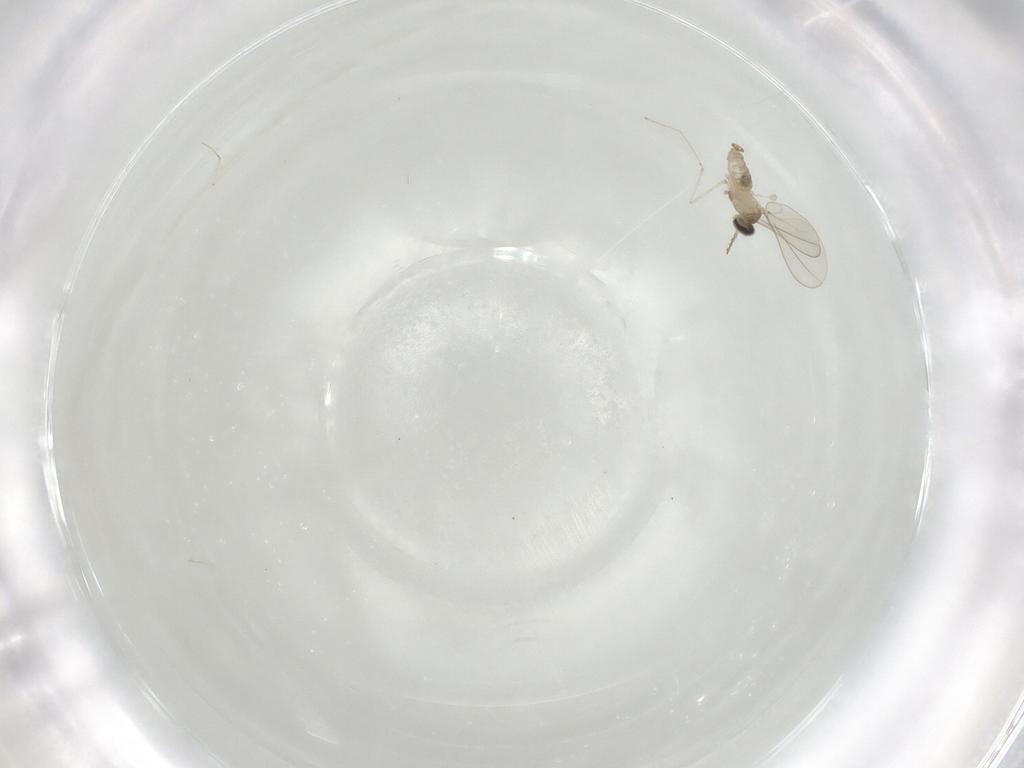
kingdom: Animalia
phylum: Arthropoda
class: Insecta
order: Diptera
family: Cecidomyiidae
